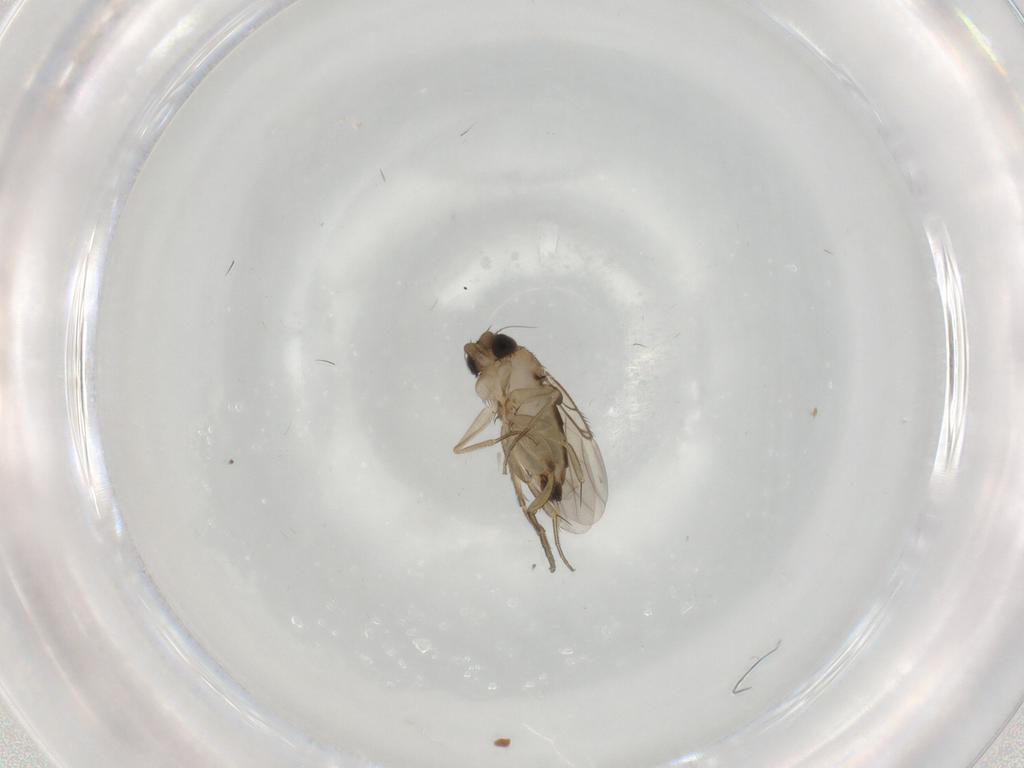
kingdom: Animalia
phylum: Arthropoda
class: Insecta
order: Diptera
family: Phoridae
